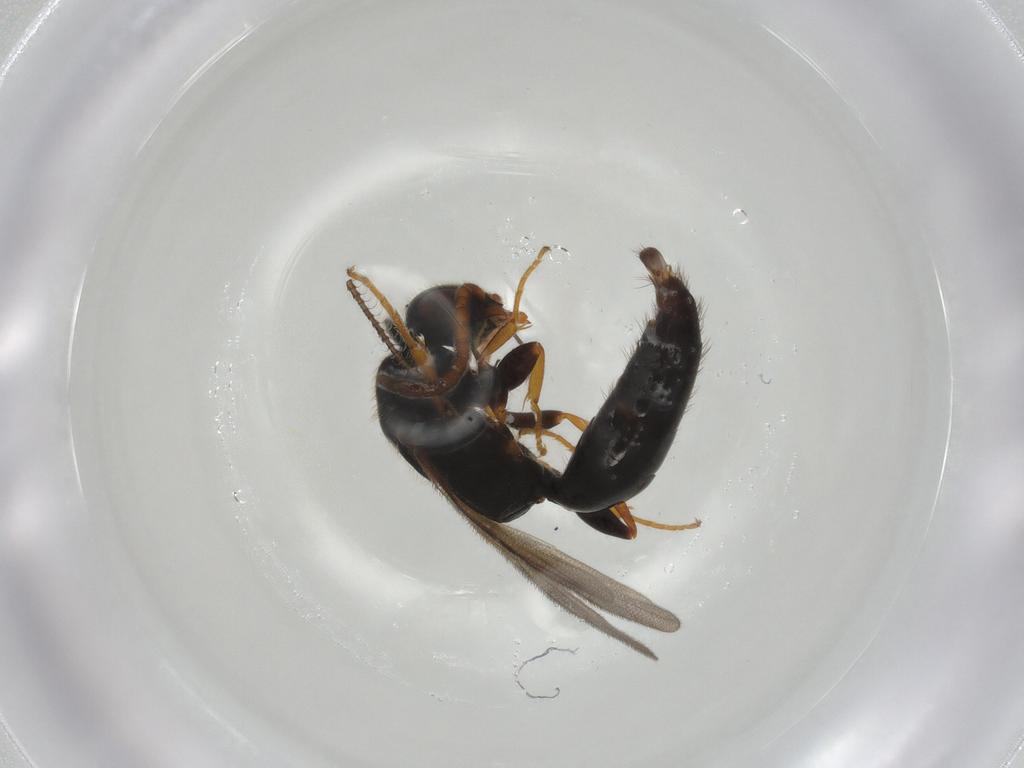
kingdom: Animalia
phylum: Arthropoda
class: Insecta
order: Hymenoptera
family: Bethylidae
